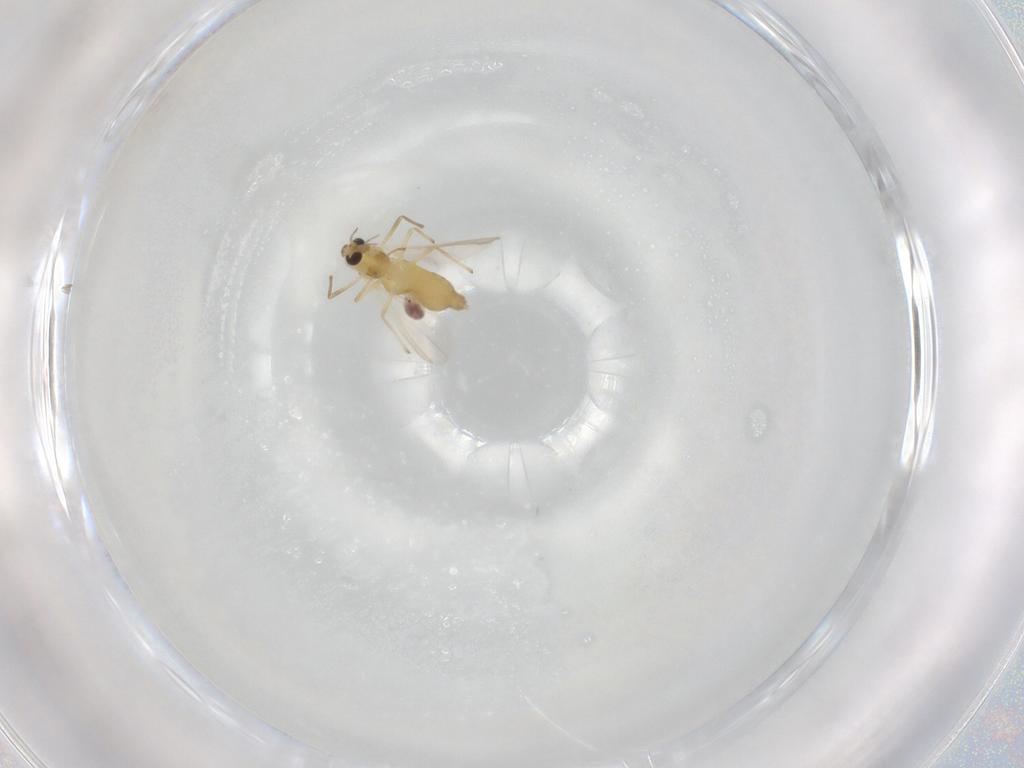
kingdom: Animalia
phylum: Arthropoda
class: Insecta
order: Diptera
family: Chironomidae
